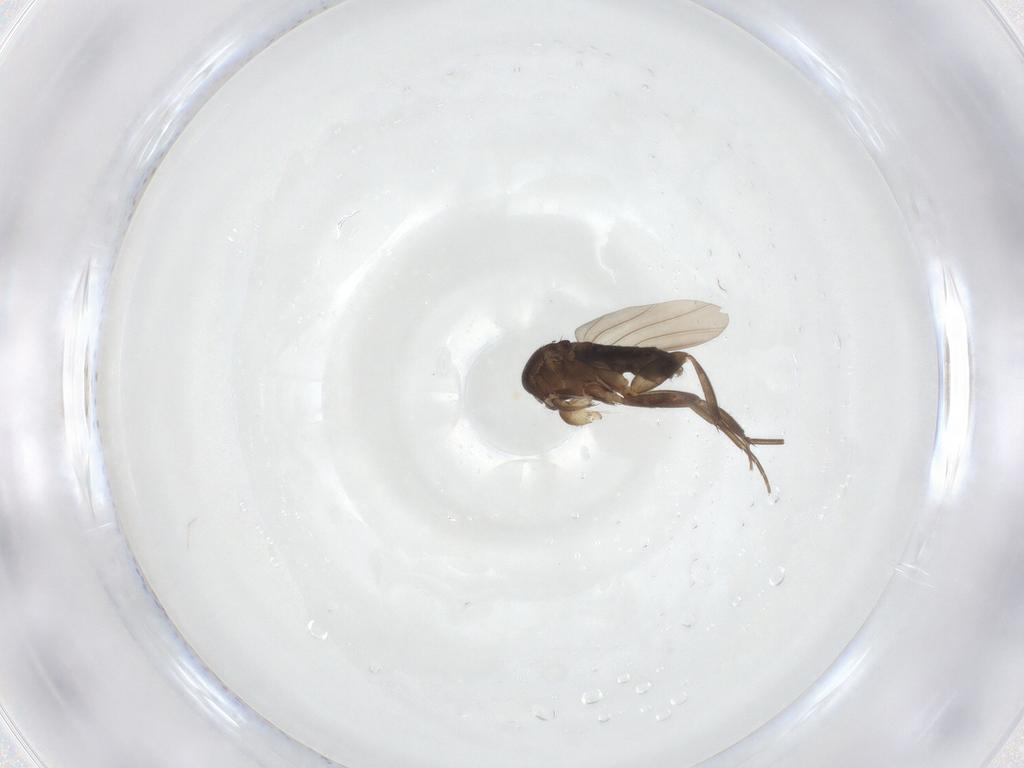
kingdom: Animalia
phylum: Arthropoda
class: Insecta
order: Diptera
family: Phoridae
